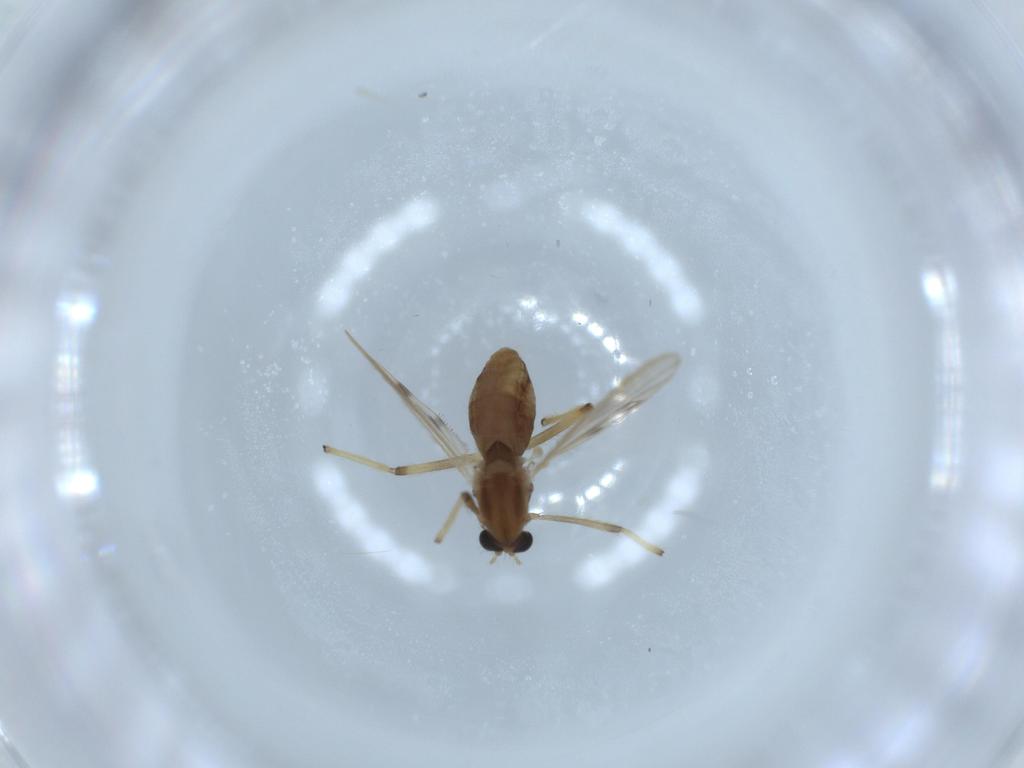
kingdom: Animalia
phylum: Arthropoda
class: Insecta
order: Diptera
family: Chironomidae
